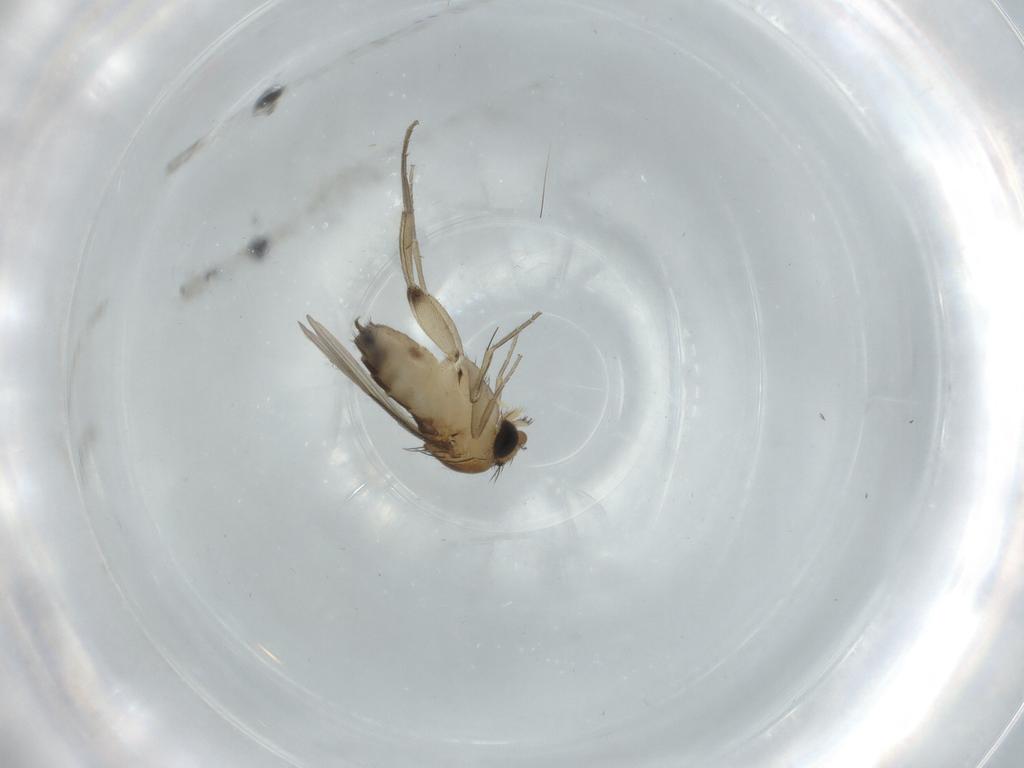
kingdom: Animalia
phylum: Arthropoda
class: Insecta
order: Diptera
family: Phoridae
